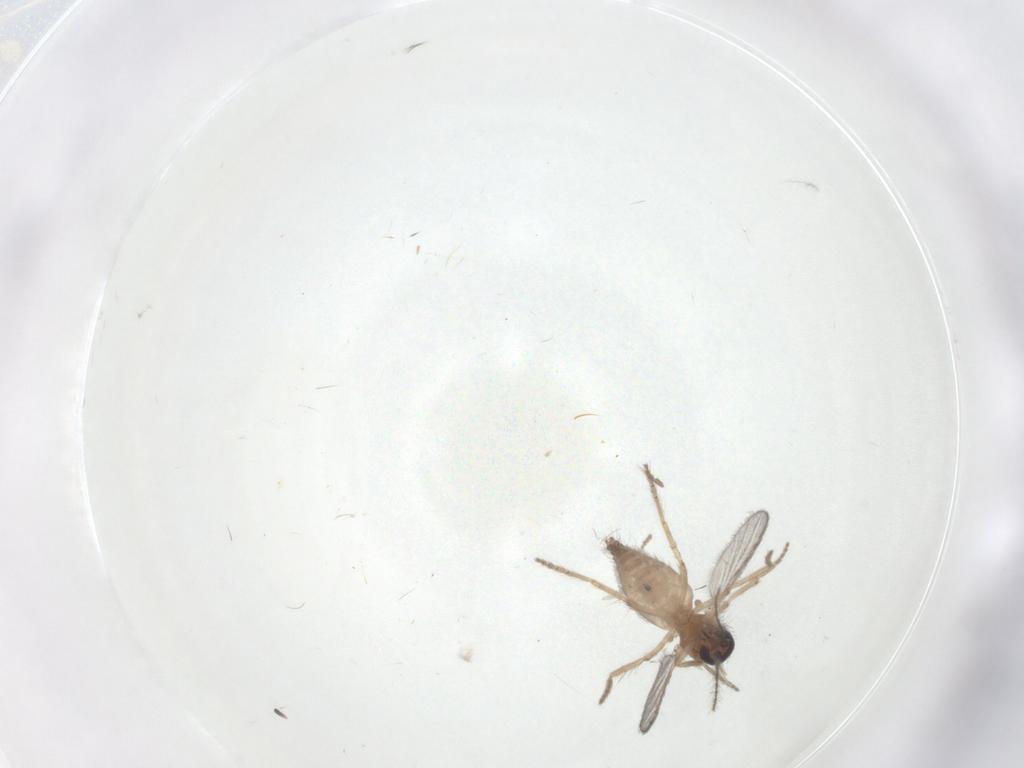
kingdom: Animalia
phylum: Arthropoda
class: Insecta
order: Diptera
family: Ceratopogonidae
